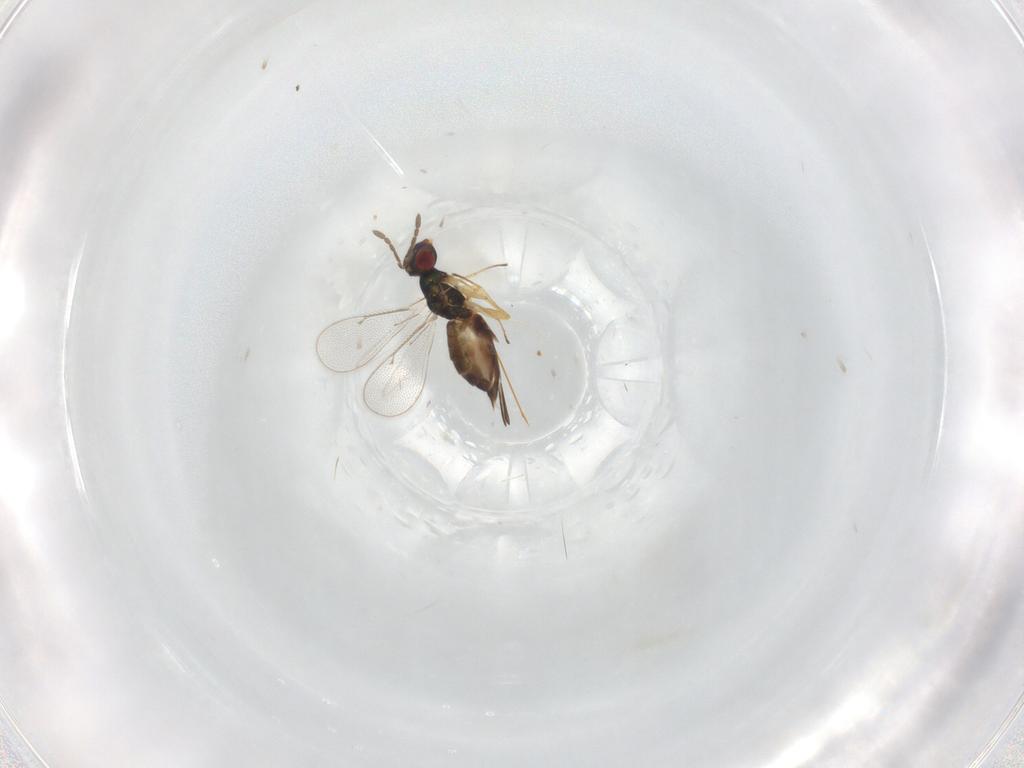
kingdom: Animalia
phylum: Arthropoda
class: Insecta
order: Hymenoptera
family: Eulophidae
